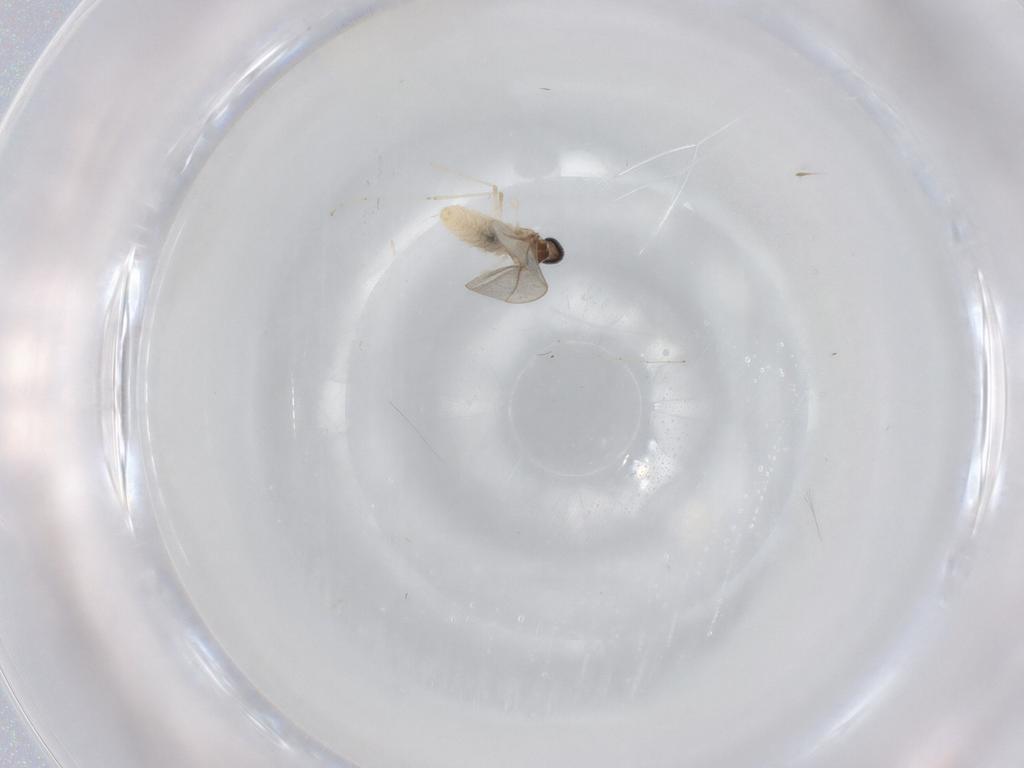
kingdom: Animalia
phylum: Arthropoda
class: Insecta
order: Diptera
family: Cecidomyiidae
